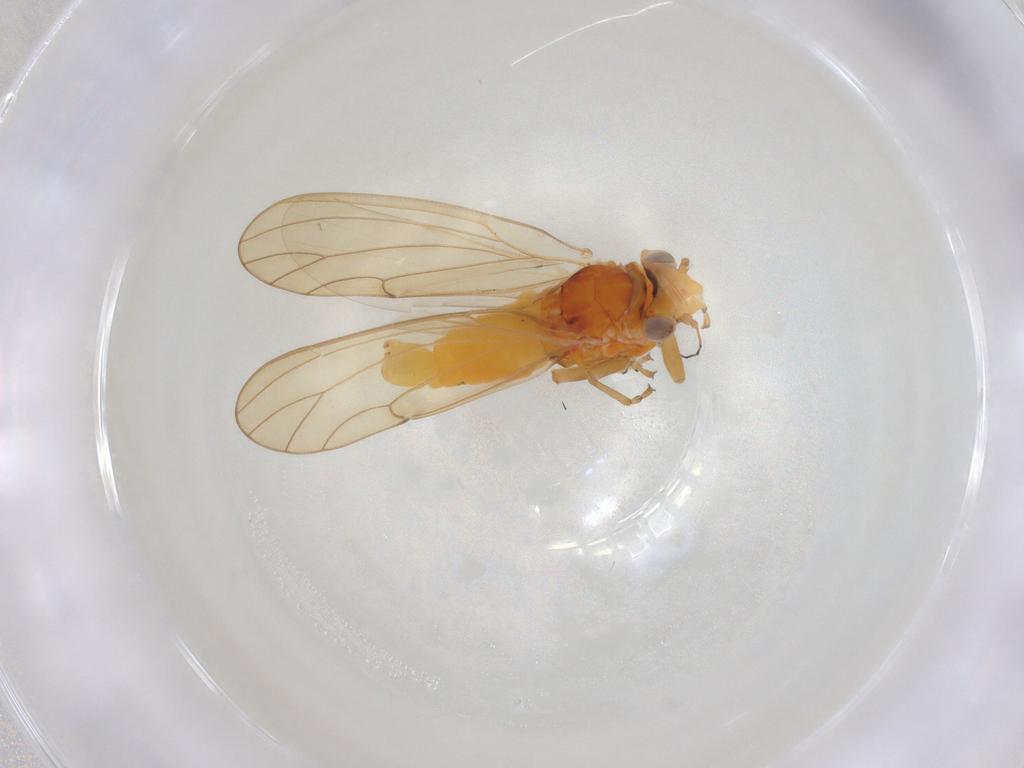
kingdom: Animalia
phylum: Arthropoda
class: Insecta
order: Hemiptera
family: Psylloidea_incertae_sedis
